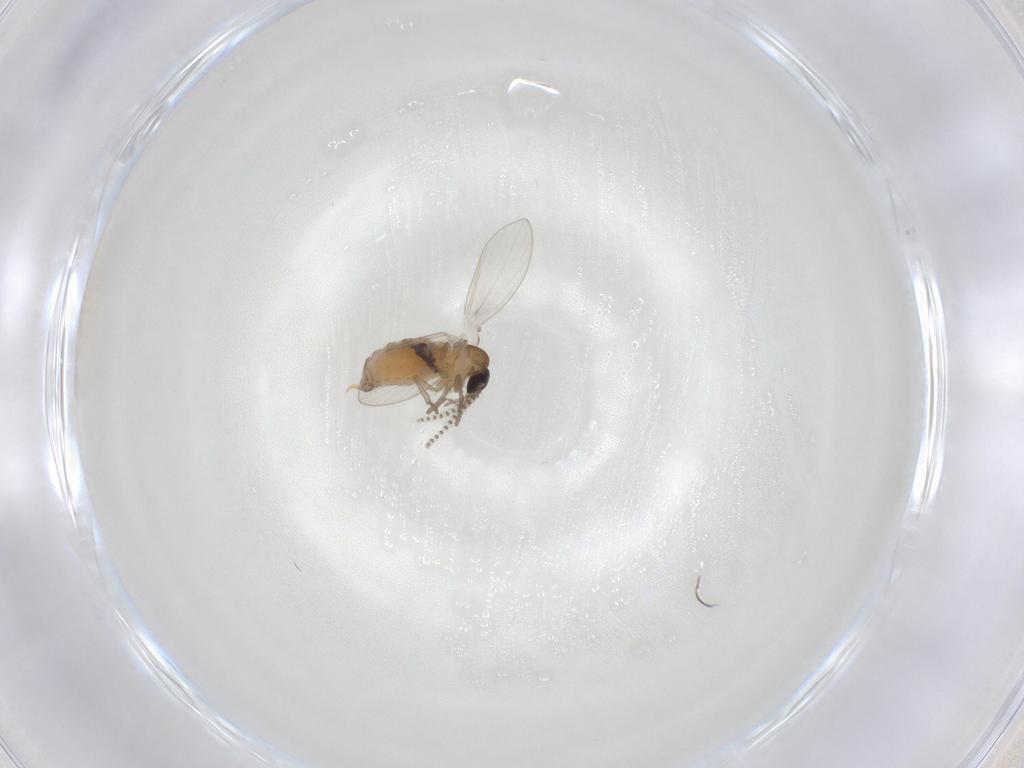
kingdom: Animalia
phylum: Arthropoda
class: Insecta
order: Diptera
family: Psychodidae
